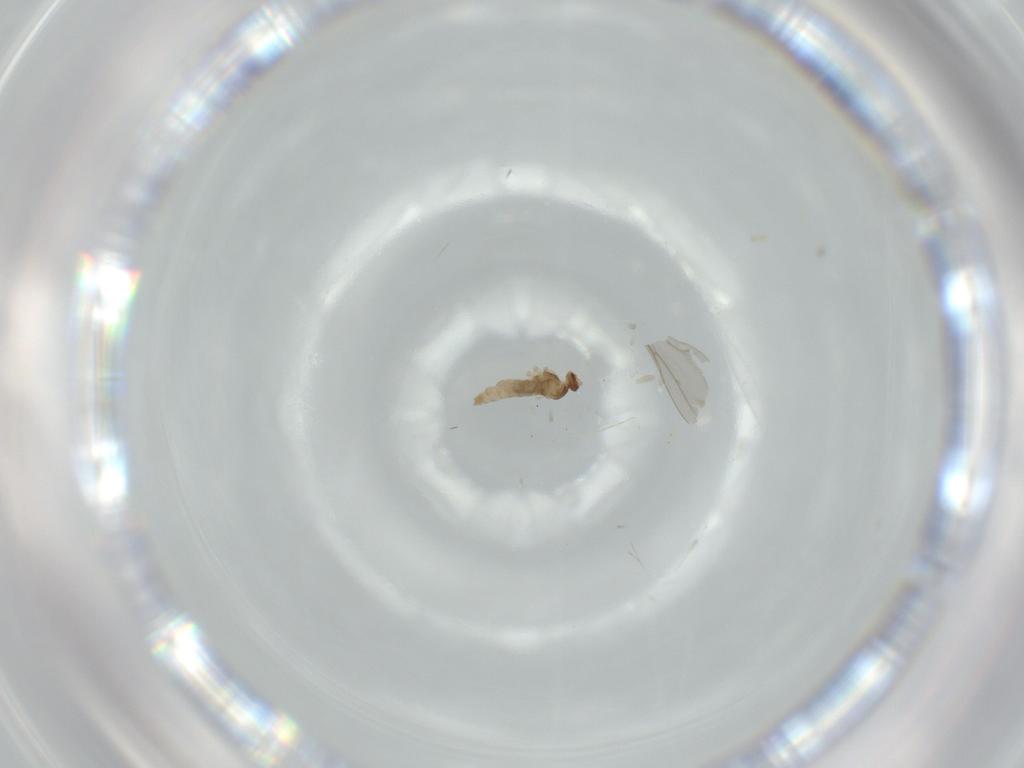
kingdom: Animalia
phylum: Arthropoda
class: Insecta
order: Diptera
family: Cecidomyiidae
